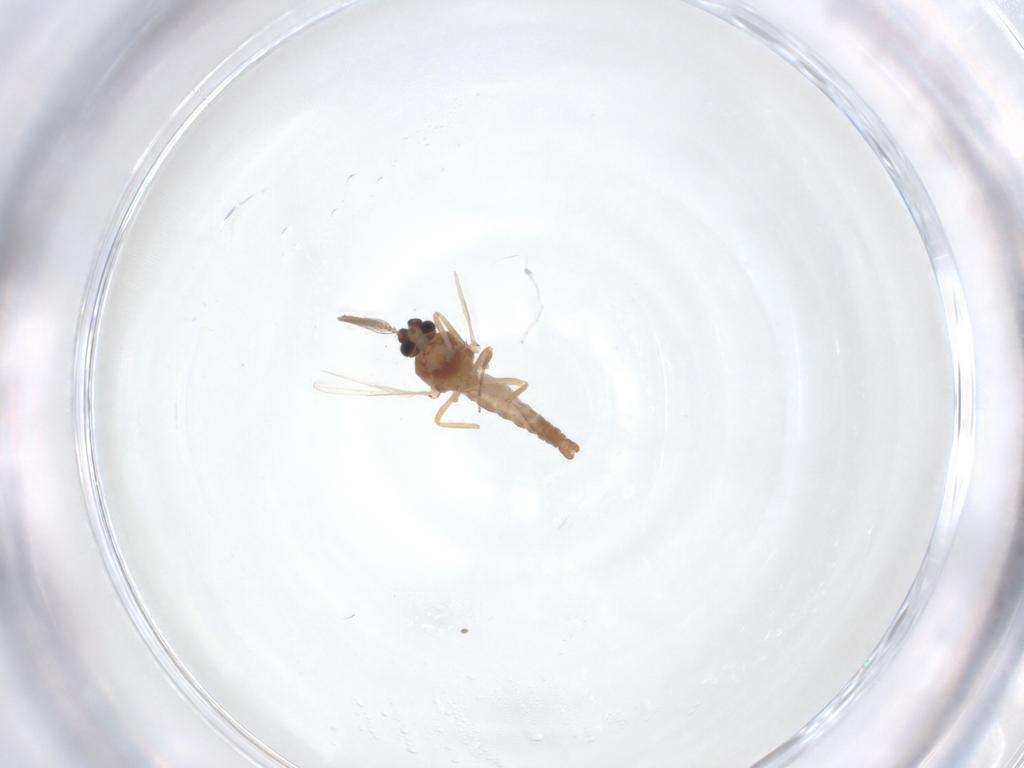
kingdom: Animalia
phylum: Arthropoda
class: Insecta
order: Diptera
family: Ceratopogonidae
